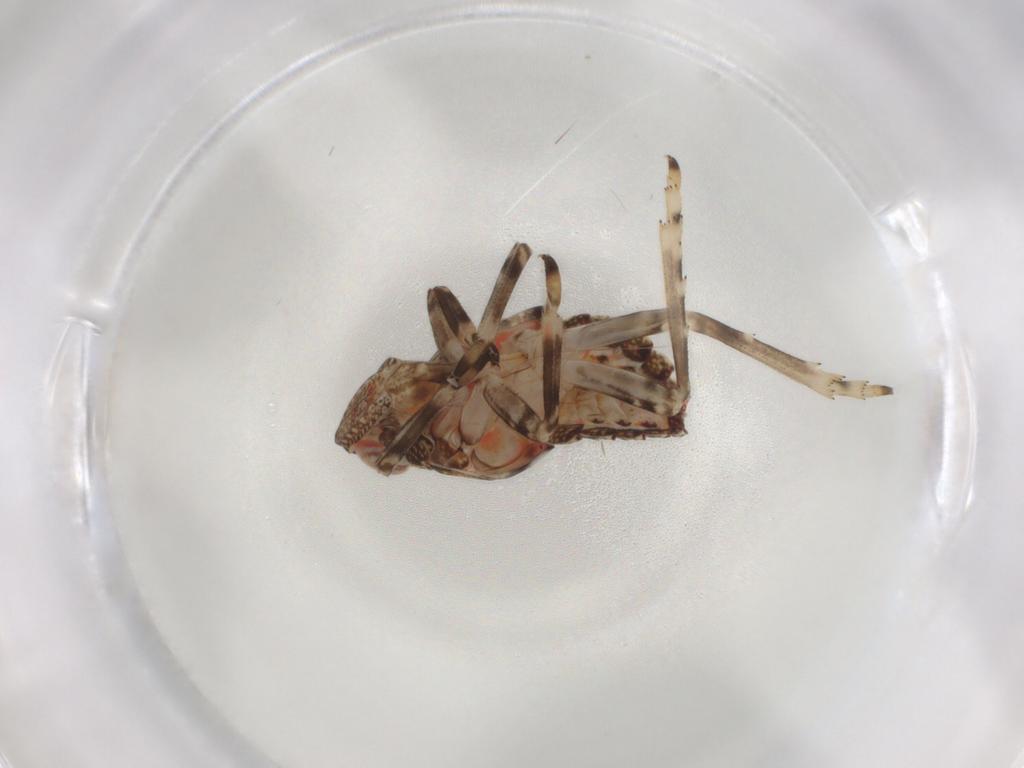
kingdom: Animalia
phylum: Arthropoda
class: Insecta
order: Hemiptera
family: Tropiduchidae
